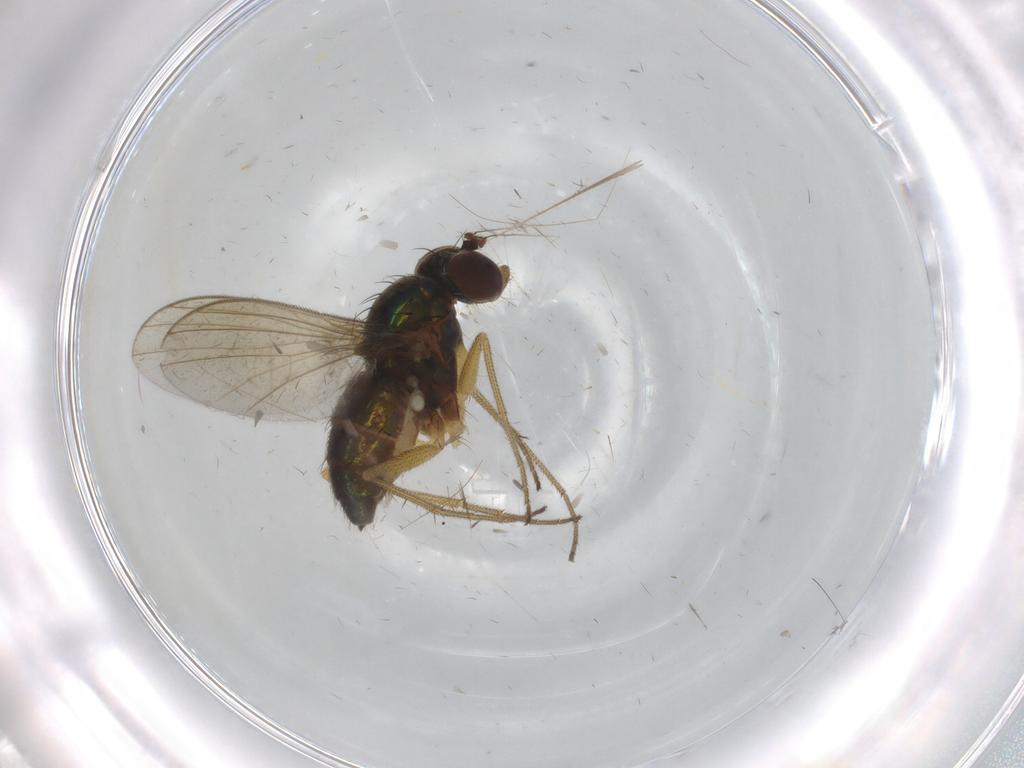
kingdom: Animalia
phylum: Arthropoda
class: Insecta
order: Diptera
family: Dolichopodidae
